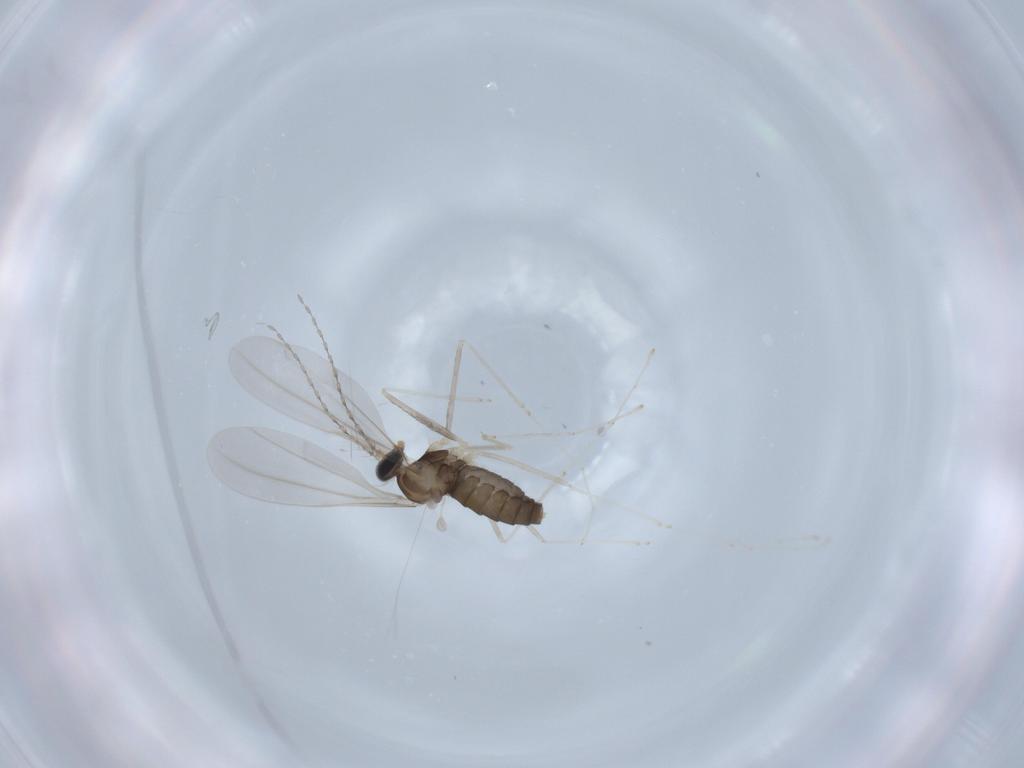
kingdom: Animalia
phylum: Arthropoda
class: Insecta
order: Diptera
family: Cecidomyiidae
